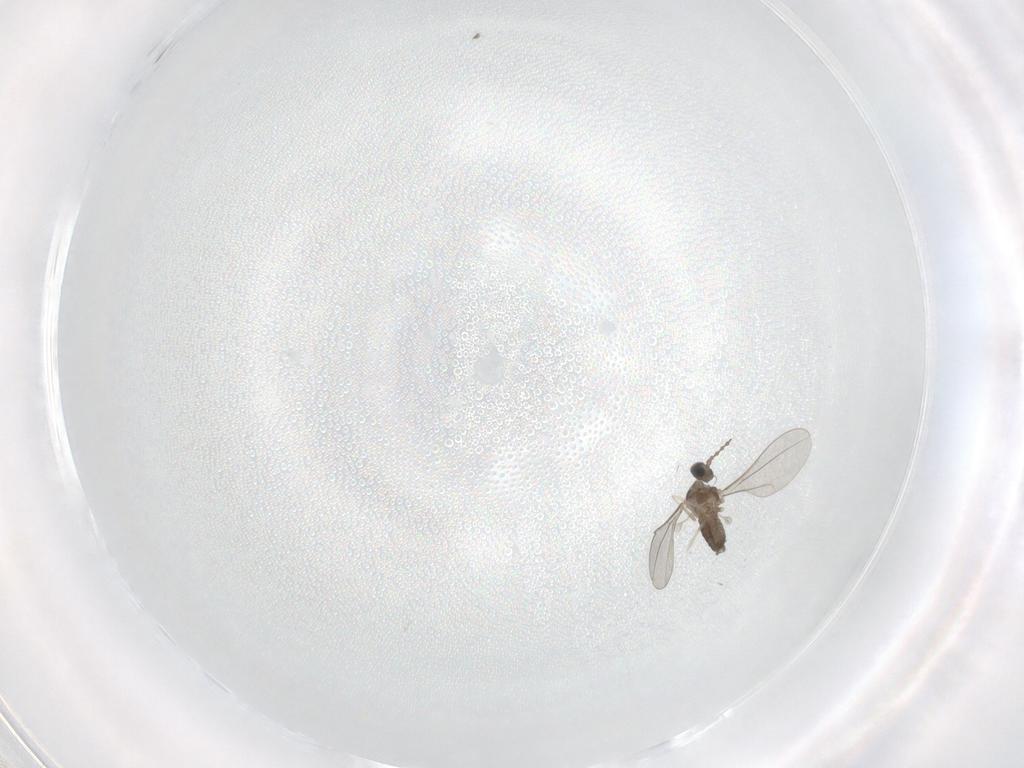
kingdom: Animalia
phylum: Arthropoda
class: Insecta
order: Diptera
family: Cecidomyiidae
